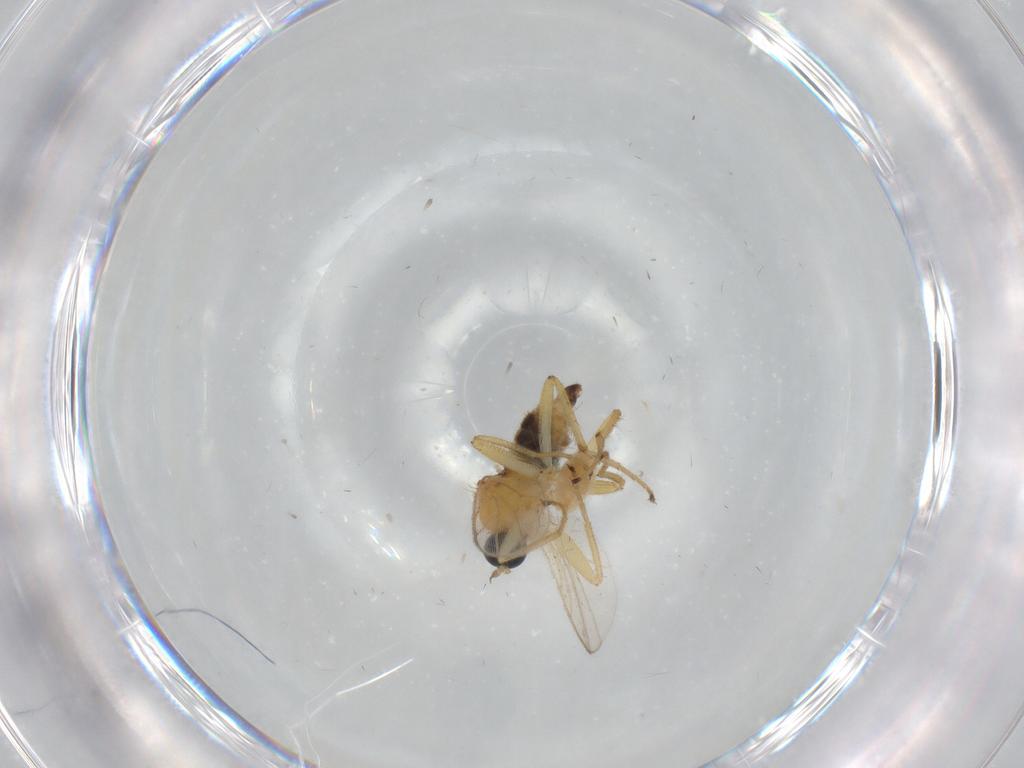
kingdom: Animalia
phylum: Arthropoda
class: Insecta
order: Diptera
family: Hybotidae
